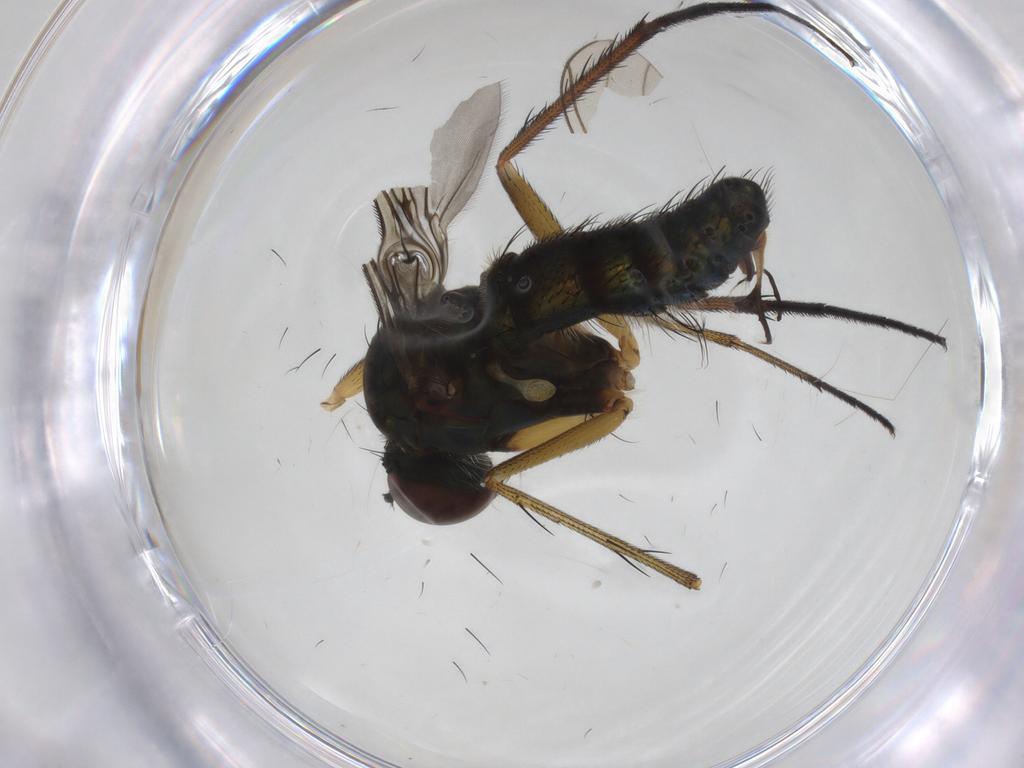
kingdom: Animalia
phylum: Arthropoda
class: Insecta
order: Diptera
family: Dolichopodidae
